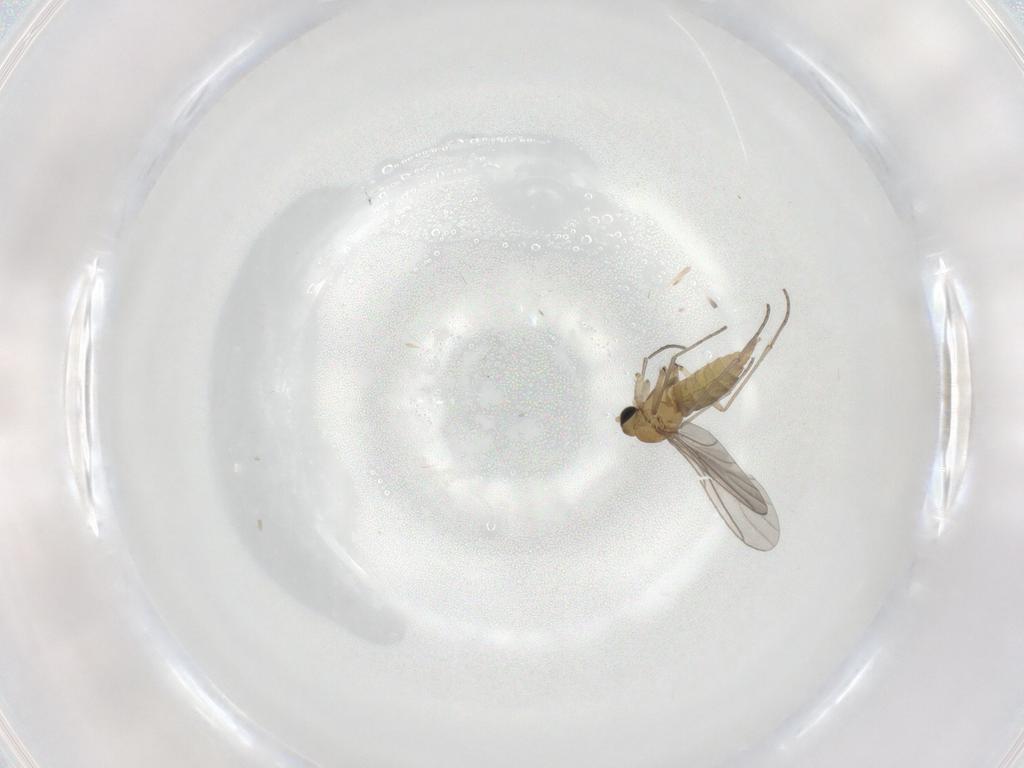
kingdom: Animalia
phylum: Arthropoda
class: Insecta
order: Diptera
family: Sciaridae
